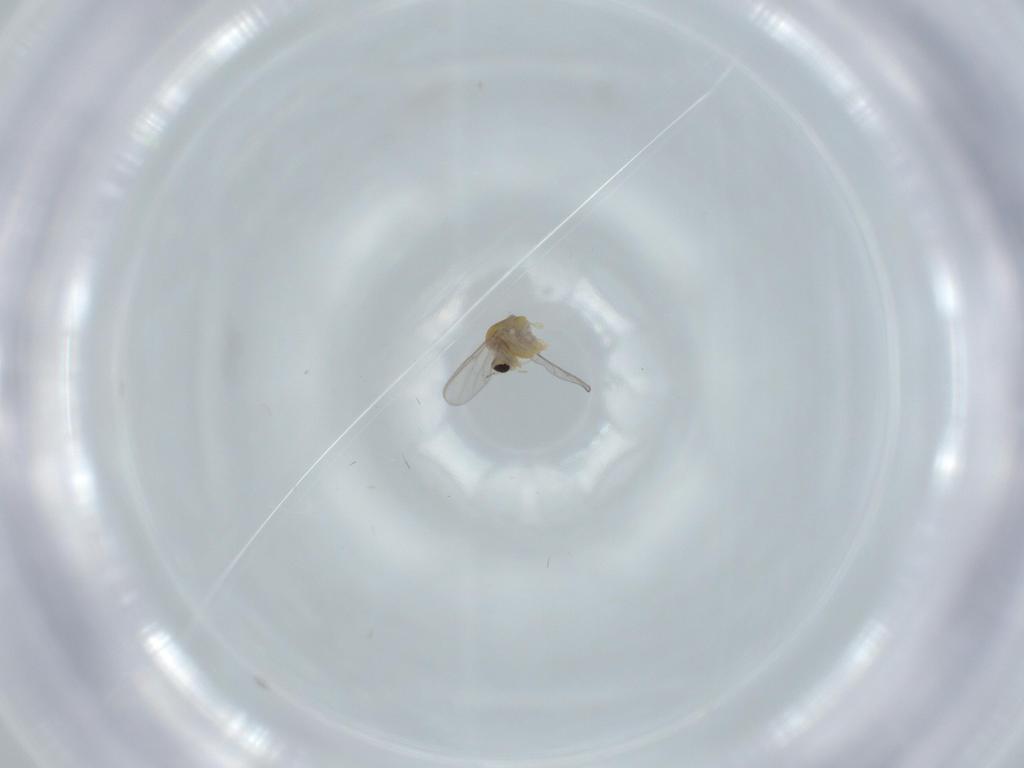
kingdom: Animalia
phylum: Arthropoda
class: Insecta
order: Diptera
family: Chironomidae
